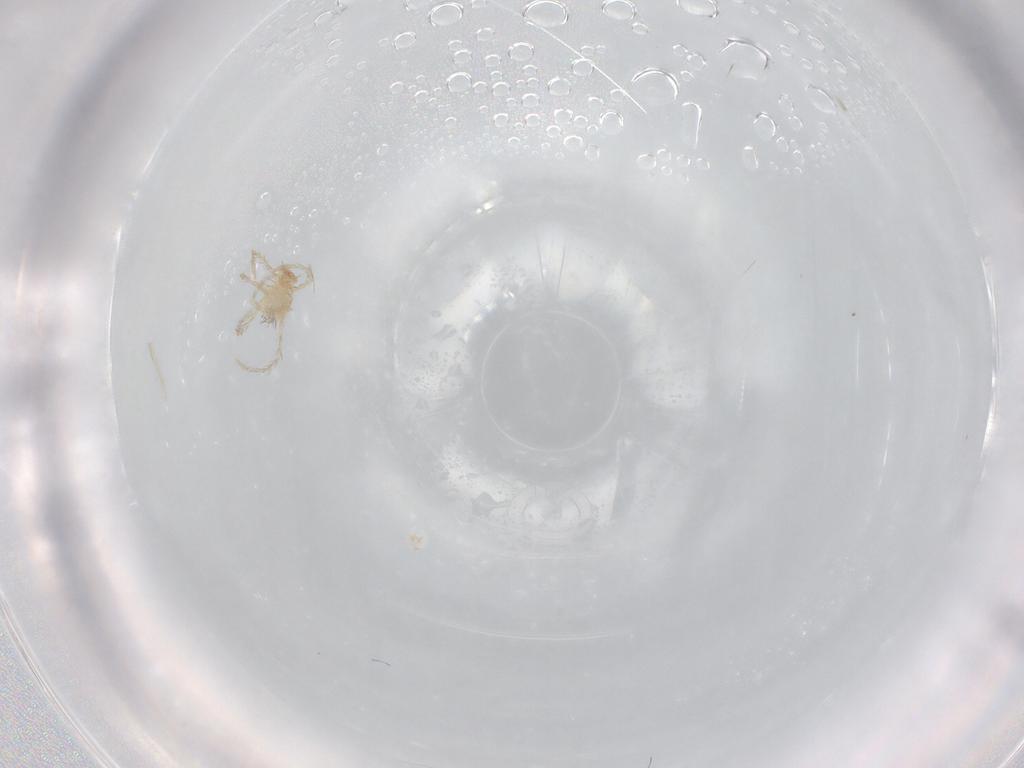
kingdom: Animalia
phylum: Arthropoda
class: Arachnida
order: Trombidiformes
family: Erythraeidae
